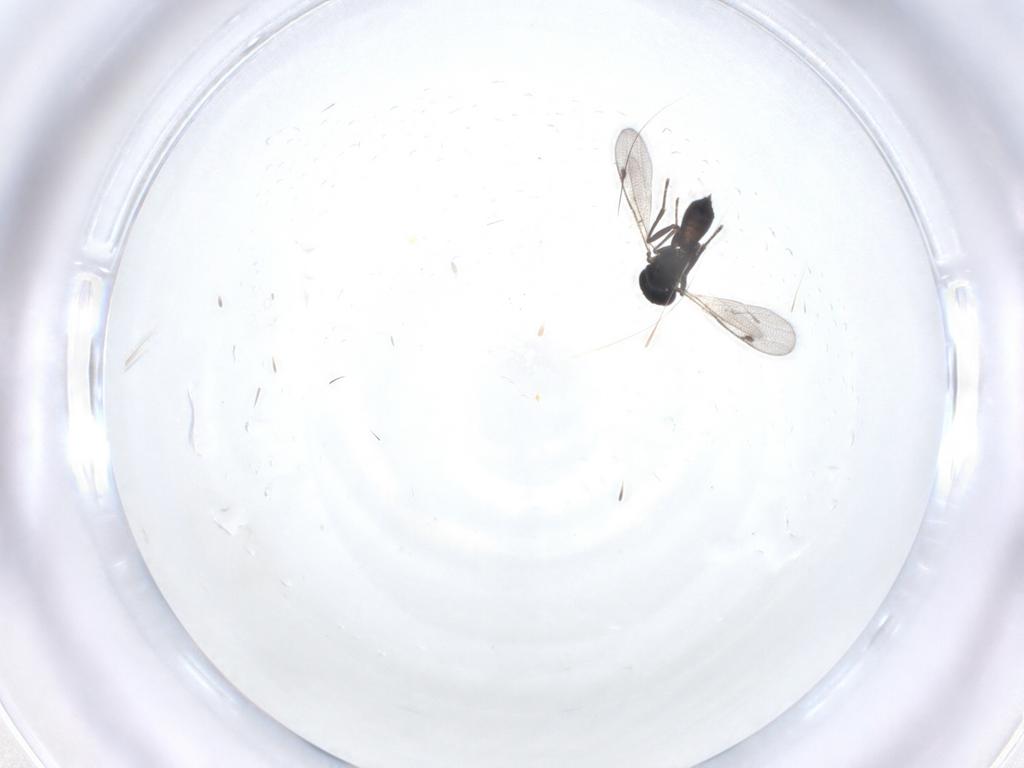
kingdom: Animalia
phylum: Arthropoda
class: Insecta
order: Hymenoptera
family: Pteromalidae
